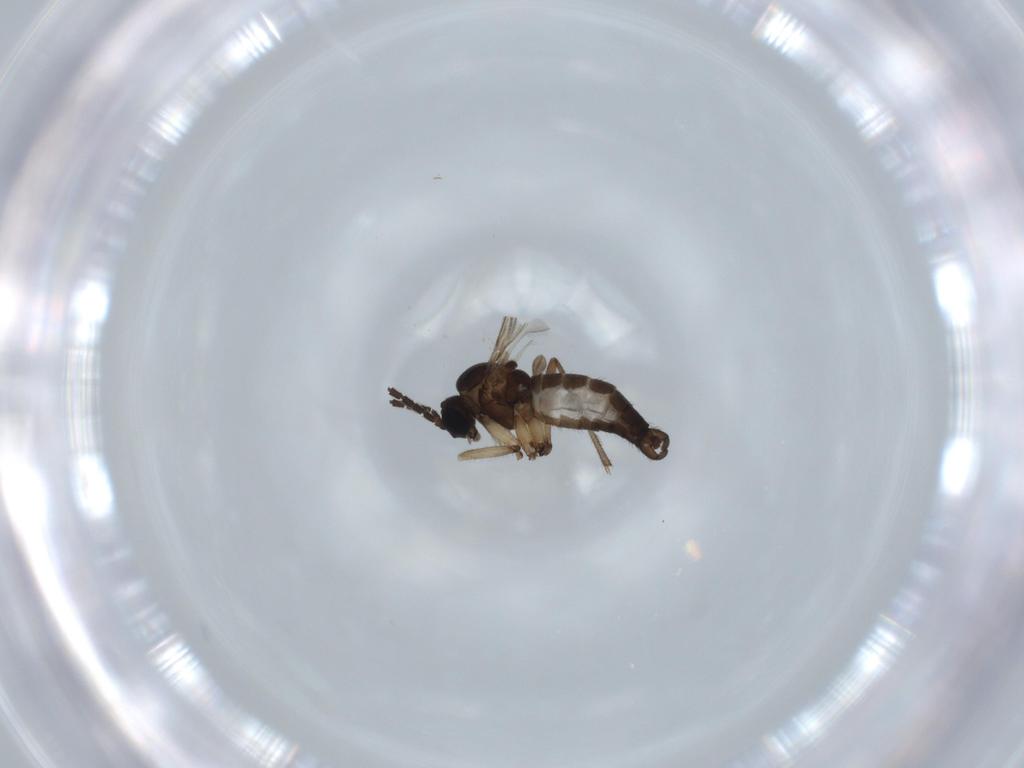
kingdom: Animalia
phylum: Arthropoda
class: Insecta
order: Diptera
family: Sciaridae
